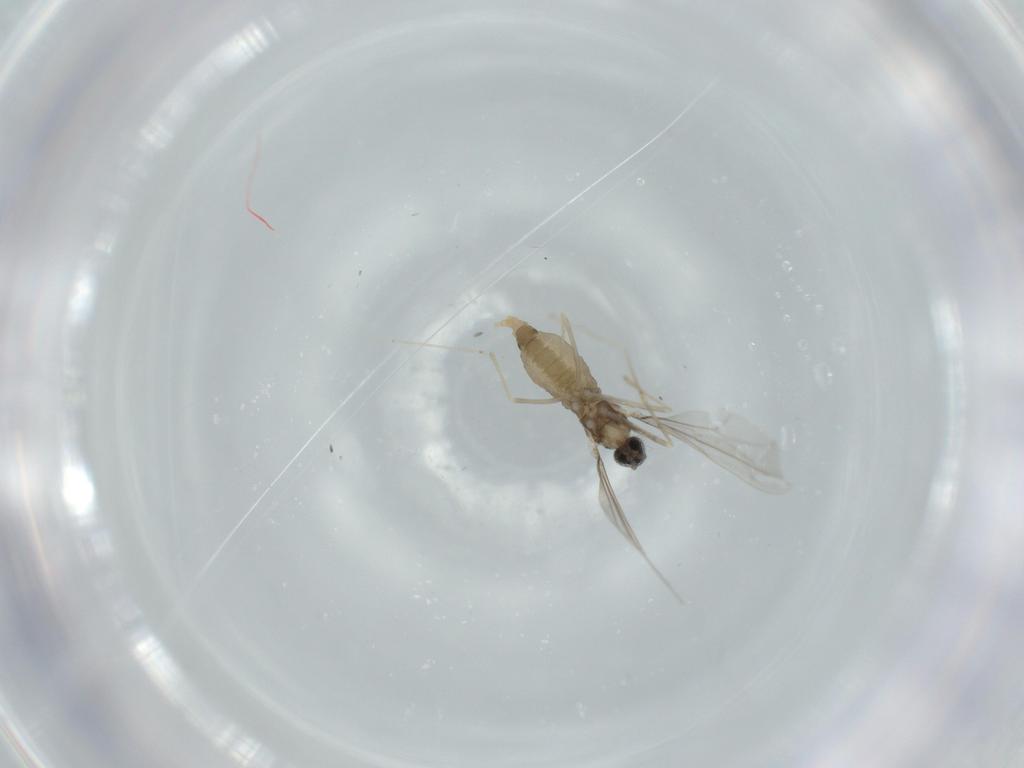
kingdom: Animalia
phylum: Arthropoda
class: Insecta
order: Diptera
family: Cecidomyiidae
